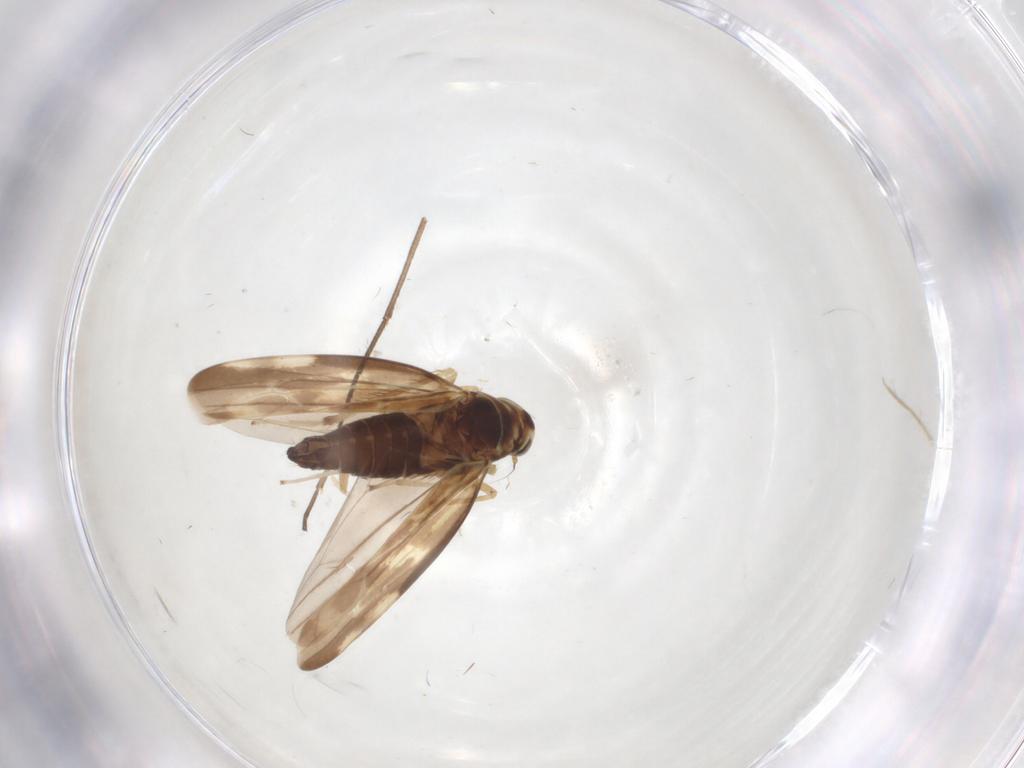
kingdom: Animalia
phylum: Arthropoda
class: Insecta
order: Hemiptera
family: Cicadellidae
